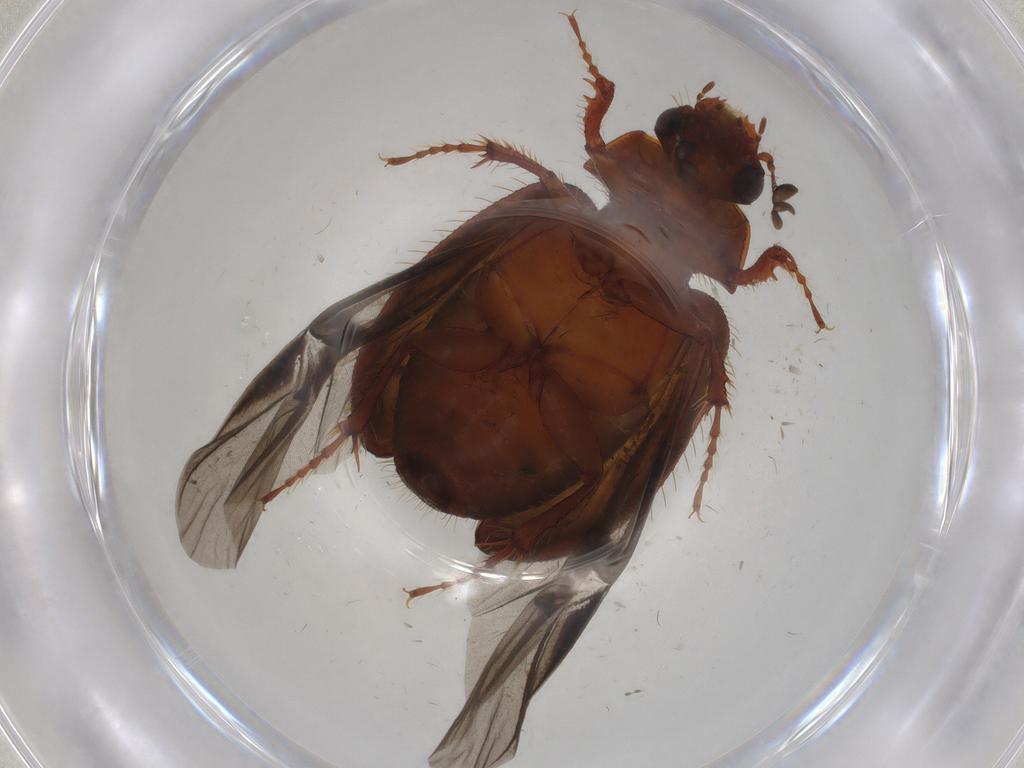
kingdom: Animalia
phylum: Arthropoda
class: Insecta
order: Coleoptera
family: Hybosoridae
